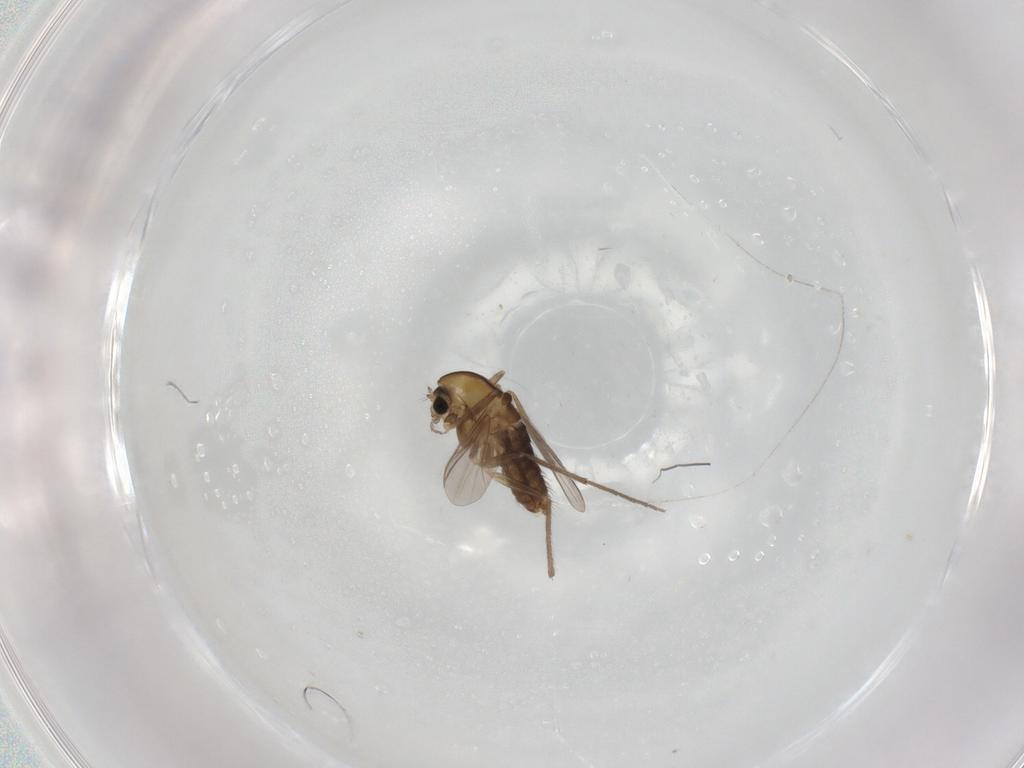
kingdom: Animalia
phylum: Arthropoda
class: Insecta
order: Diptera
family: Chironomidae
